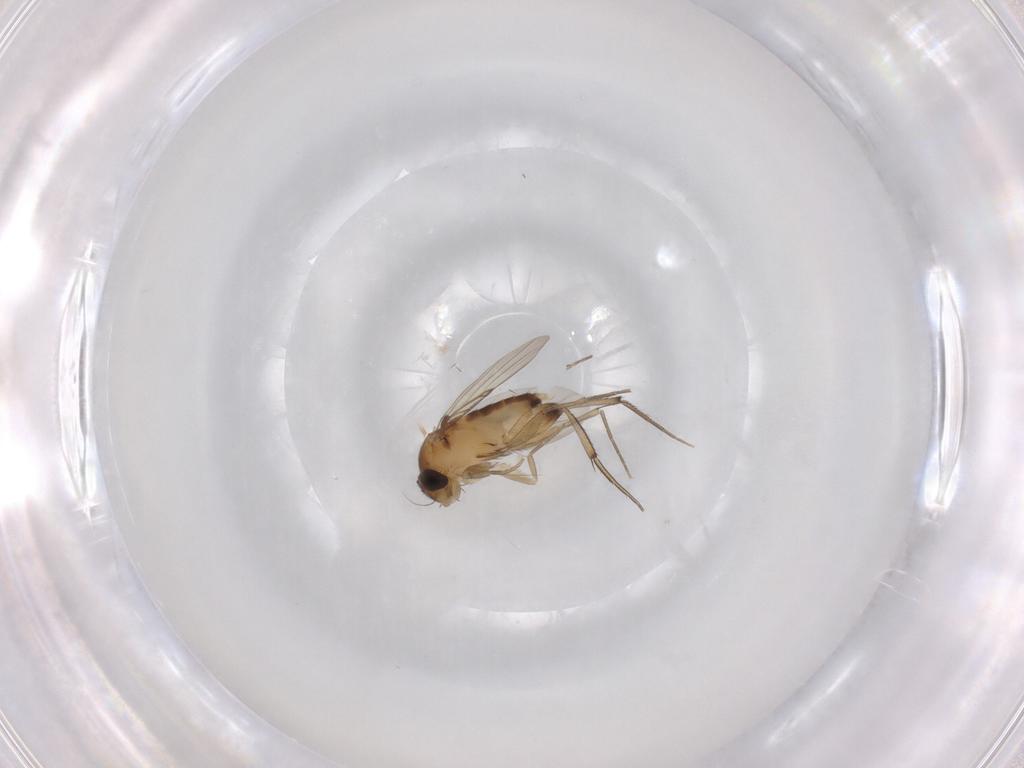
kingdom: Animalia
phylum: Arthropoda
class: Insecta
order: Diptera
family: Phoridae
